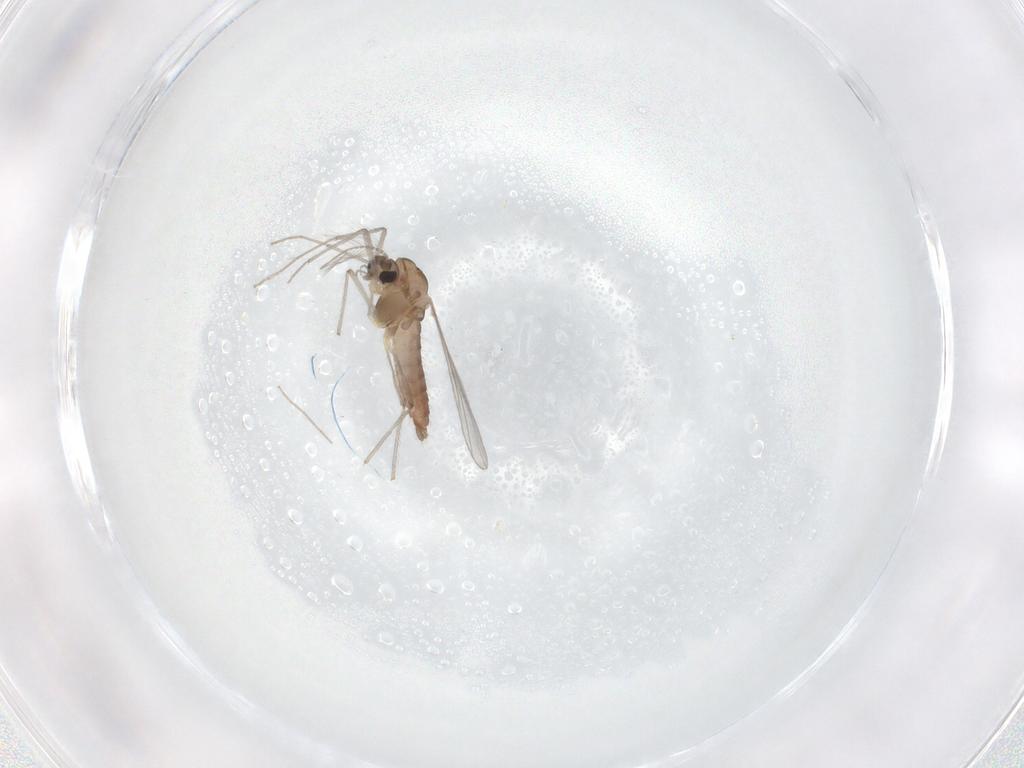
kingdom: Animalia
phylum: Arthropoda
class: Insecta
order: Diptera
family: Chironomidae
